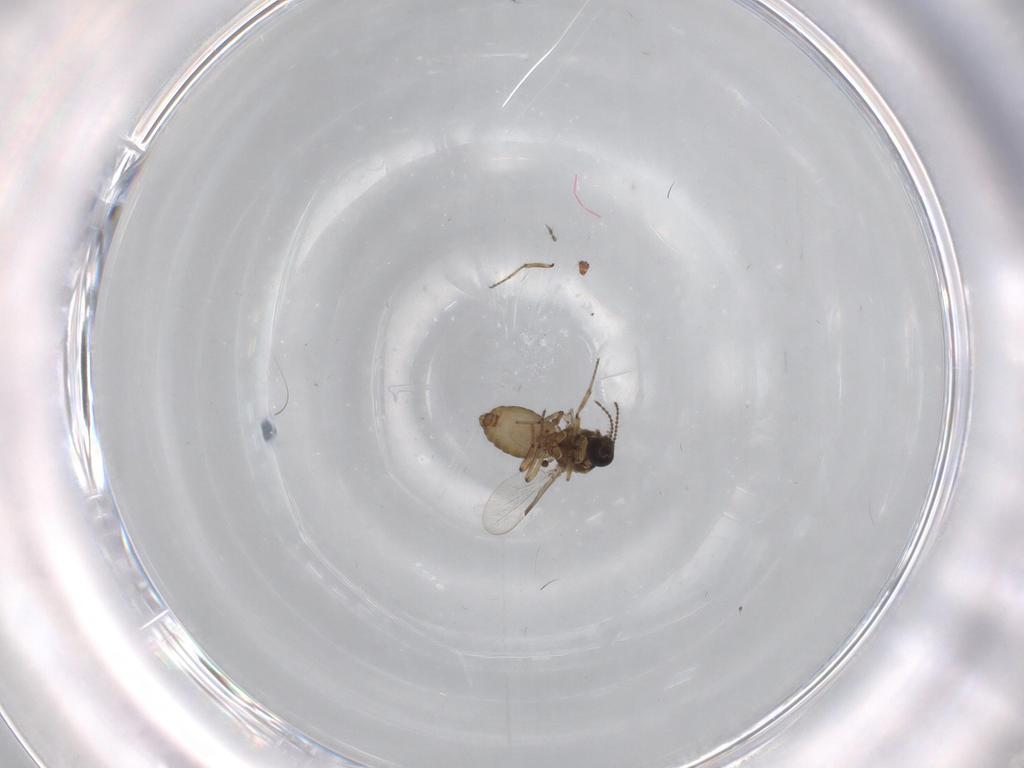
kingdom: Animalia
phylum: Arthropoda
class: Insecta
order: Diptera
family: Ceratopogonidae
